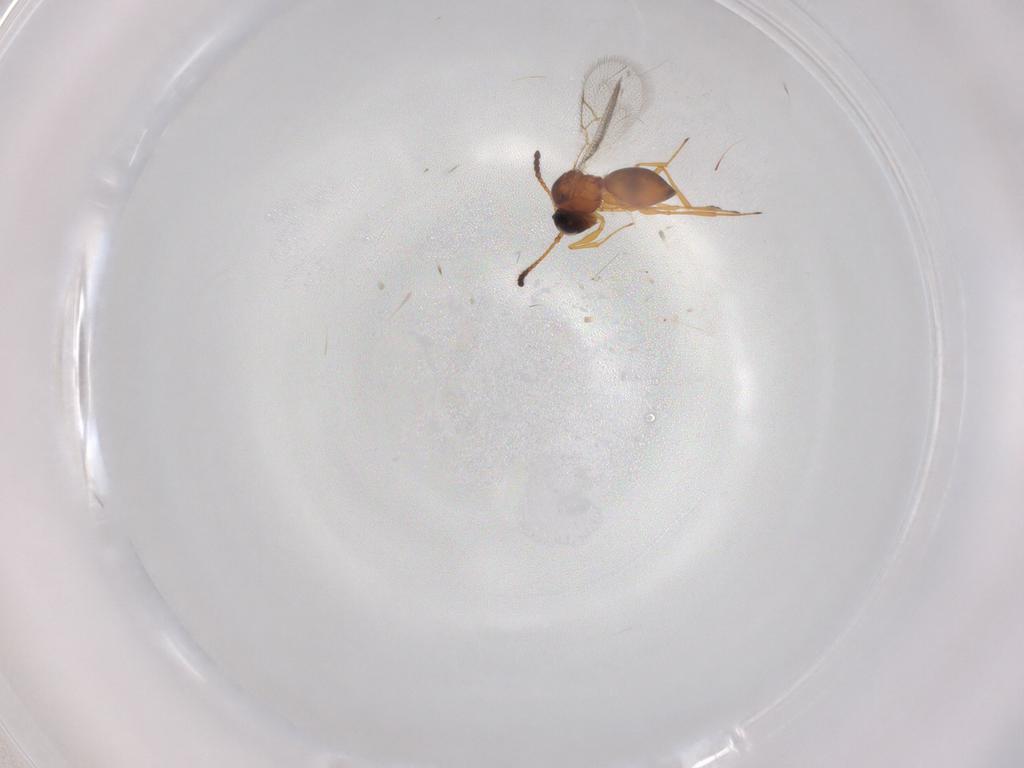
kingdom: Animalia
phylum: Arthropoda
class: Insecta
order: Hymenoptera
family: Figitidae
